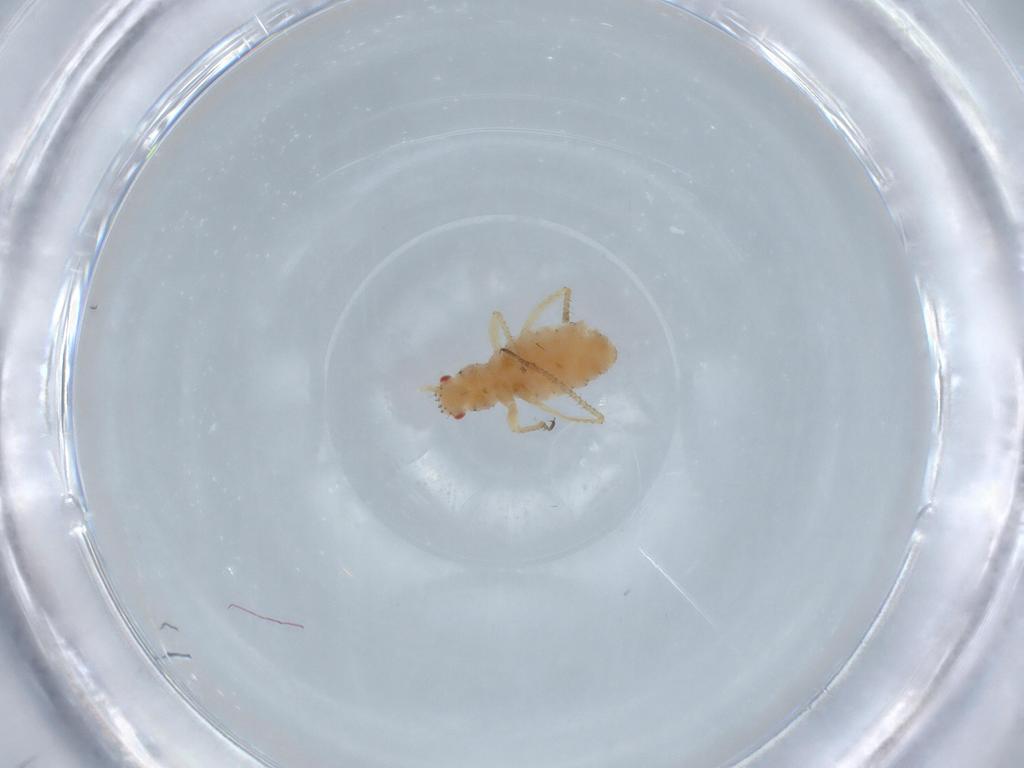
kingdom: Animalia
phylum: Arthropoda
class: Insecta
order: Hemiptera
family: Aphididae
